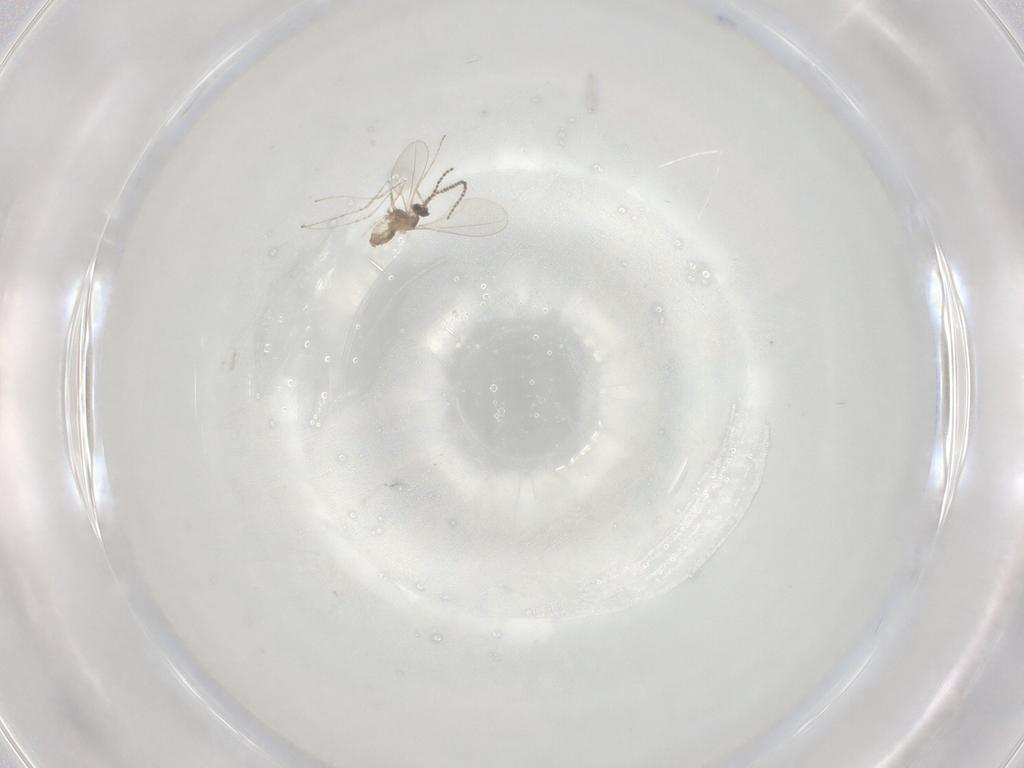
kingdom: Animalia
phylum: Arthropoda
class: Insecta
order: Diptera
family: Cecidomyiidae
